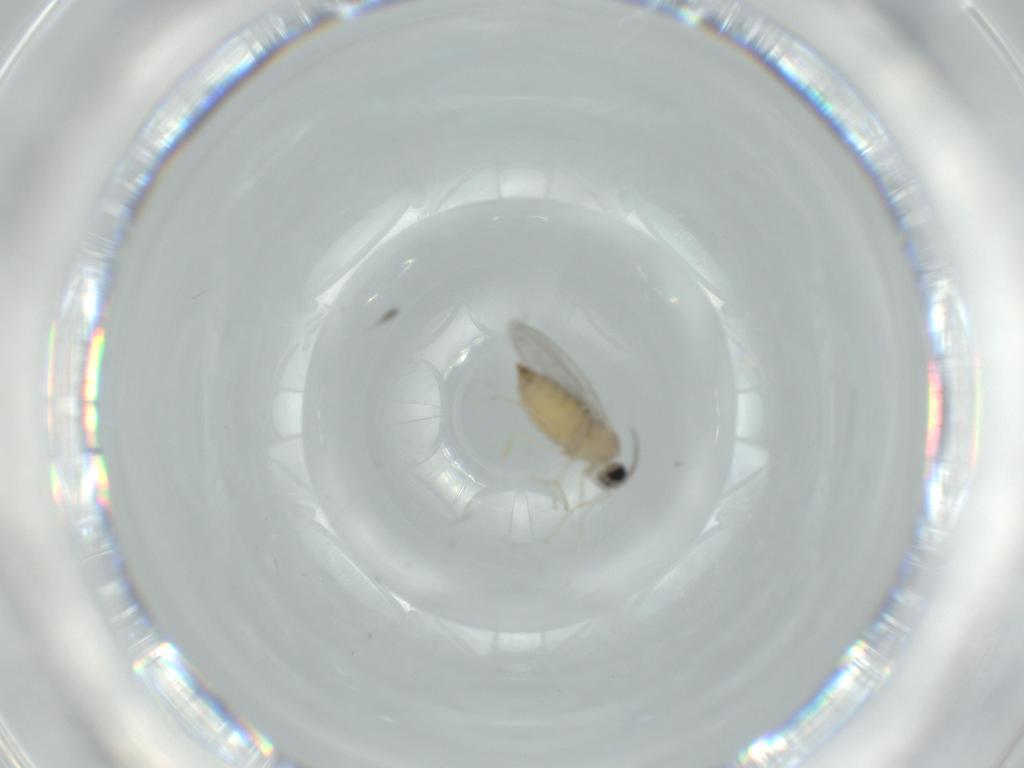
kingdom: Animalia
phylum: Arthropoda
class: Insecta
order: Diptera
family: Cecidomyiidae
